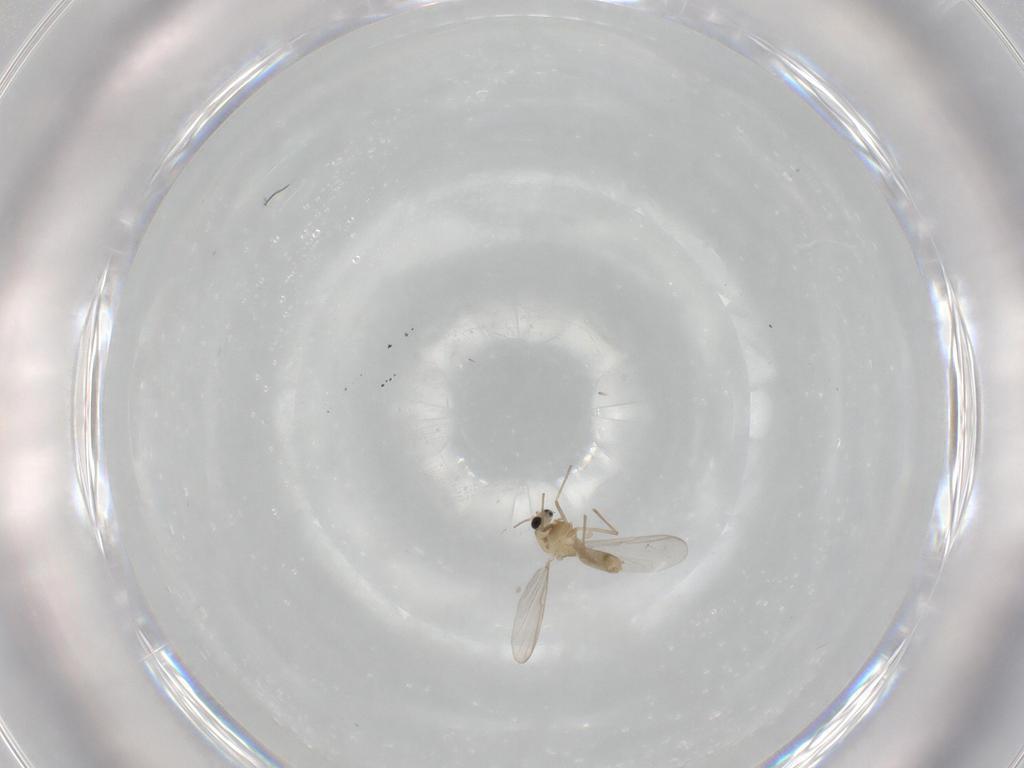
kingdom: Animalia
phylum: Arthropoda
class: Insecta
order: Diptera
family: Chironomidae
